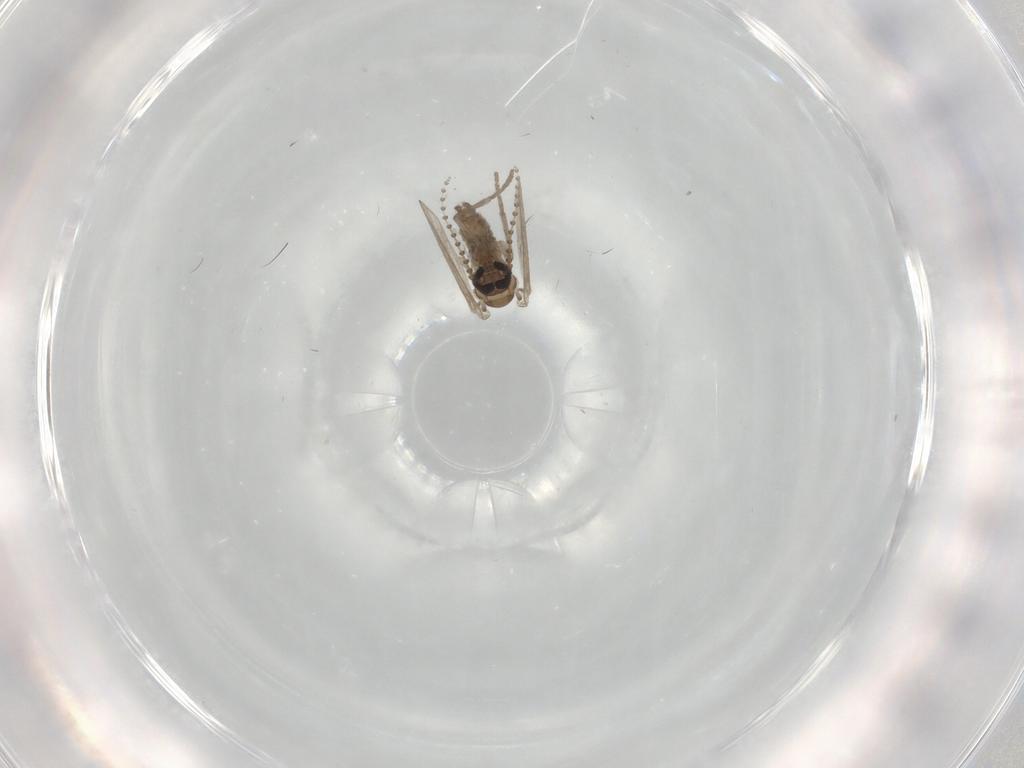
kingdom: Animalia
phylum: Arthropoda
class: Insecta
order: Diptera
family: Psychodidae
